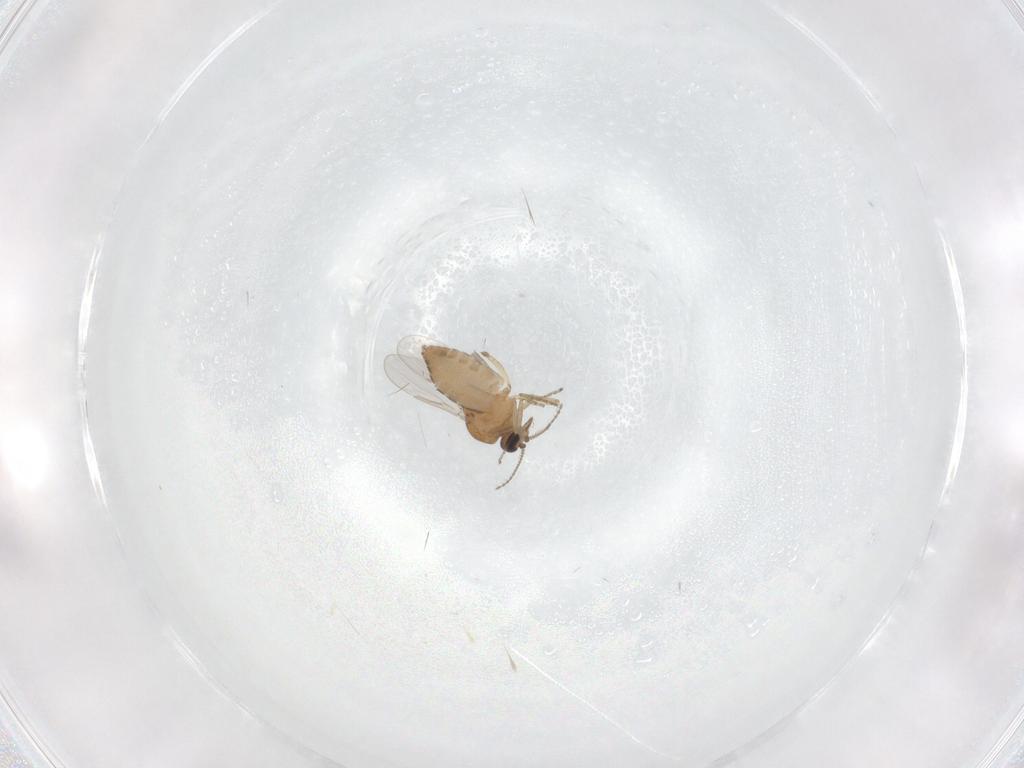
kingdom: Animalia
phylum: Arthropoda
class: Insecta
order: Diptera
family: Ceratopogonidae
